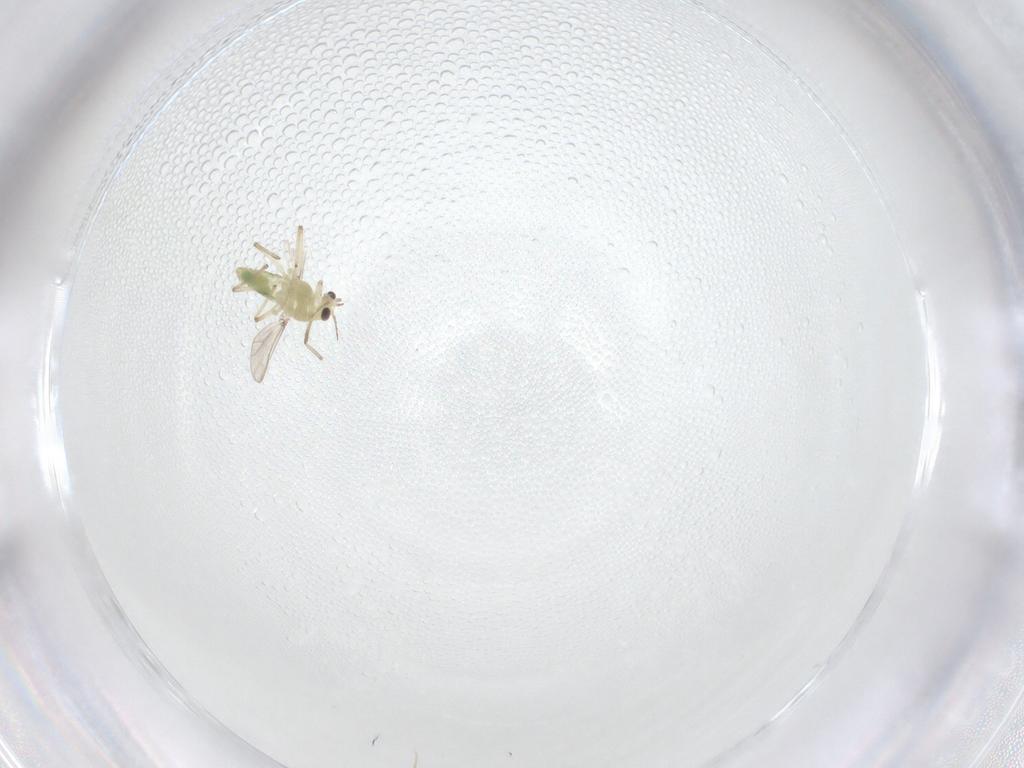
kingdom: Animalia
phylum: Arthropoda
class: Insecta
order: Diptera
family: Chironomidae
